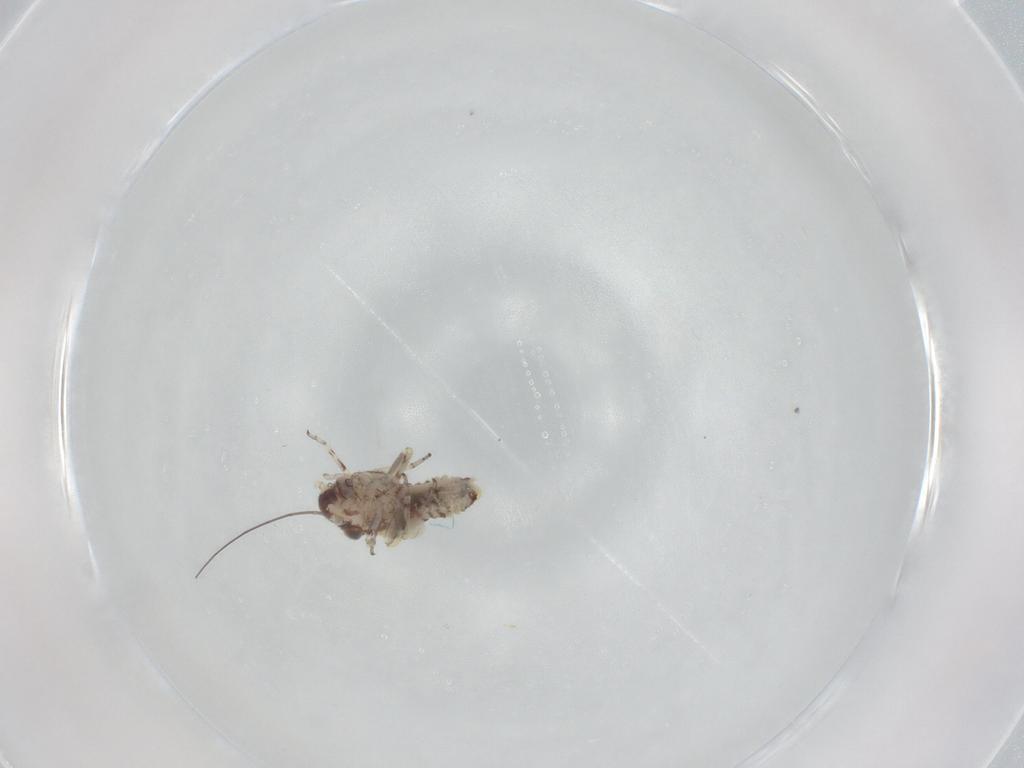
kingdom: Animalia
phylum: Arthropoda
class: Insecta
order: Psocodea
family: Psocidae
